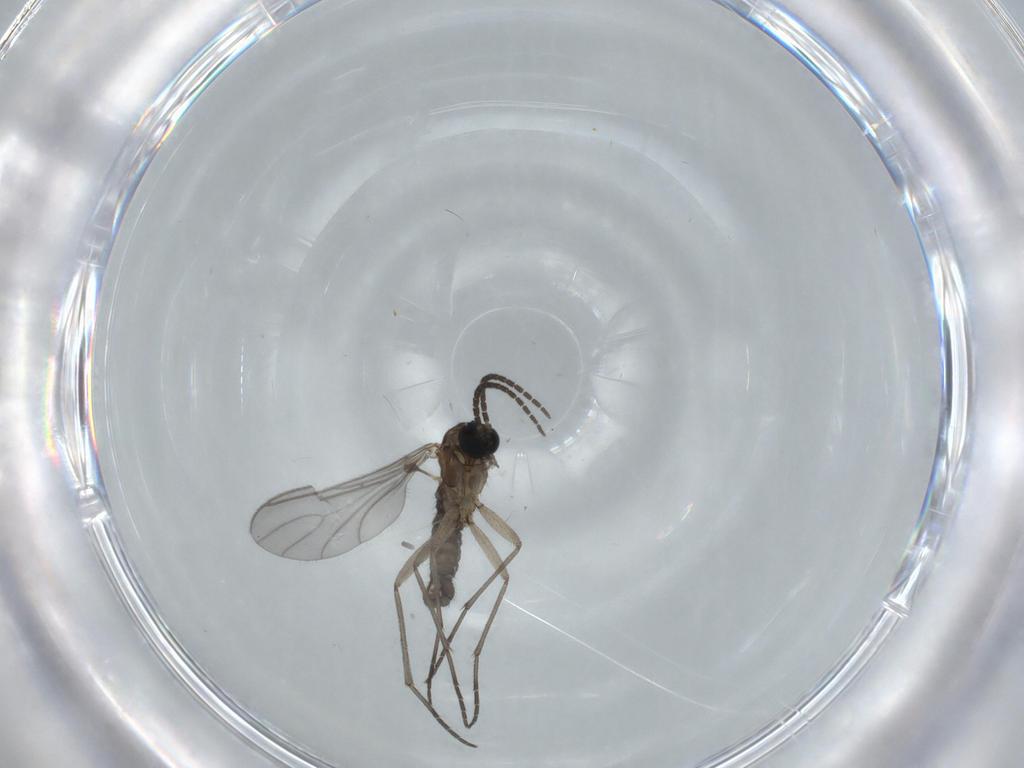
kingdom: Animalia
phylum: Arthropoda
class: Insecta
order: Diptera
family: Sciaridae
